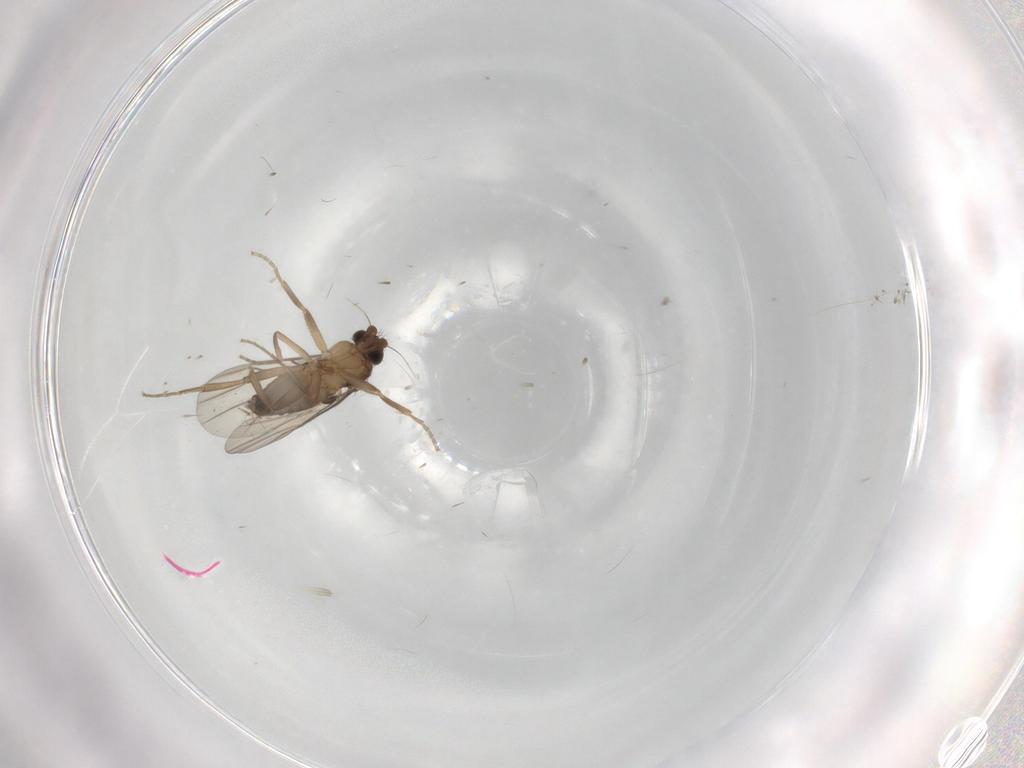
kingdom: Animalia
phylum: Arthropoda
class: Insecta
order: Diptera
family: Phoridae
